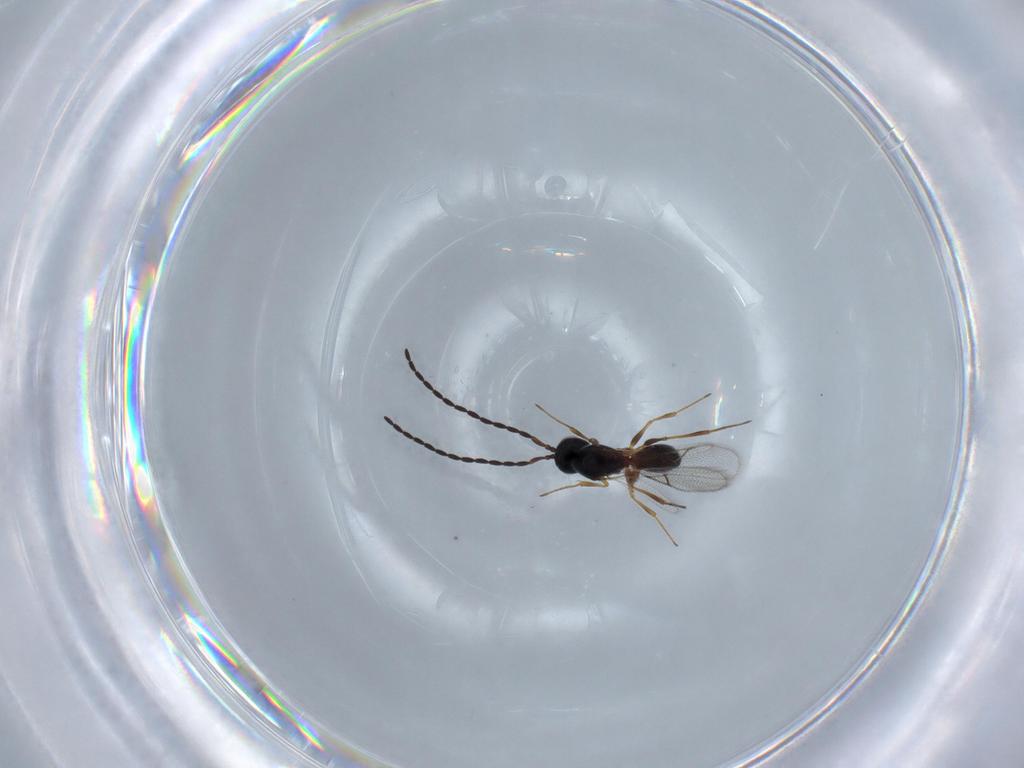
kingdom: Animalia
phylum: Arthropoda
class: Insecta
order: Hymenoptera
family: Figitidae
